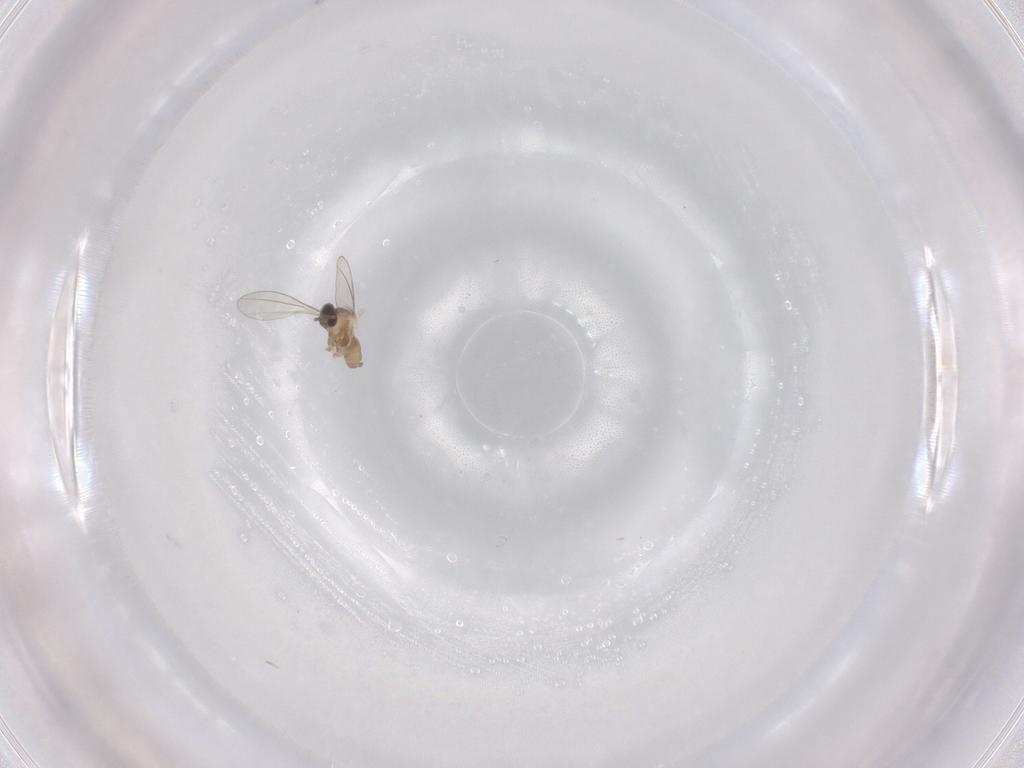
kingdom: Animalia
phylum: Arthropoda
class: Insecta
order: Diptera
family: Cecidomyiidae
